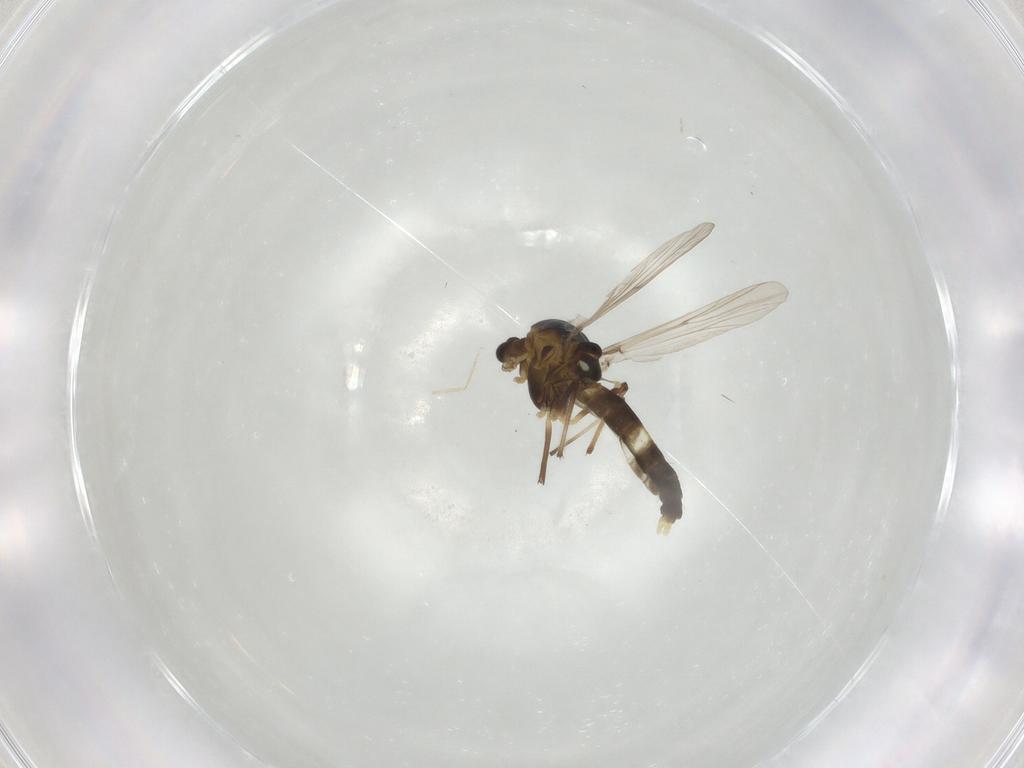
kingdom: Animalia
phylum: Arthropoda
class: Insecta
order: Diptera
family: Chironomidae
